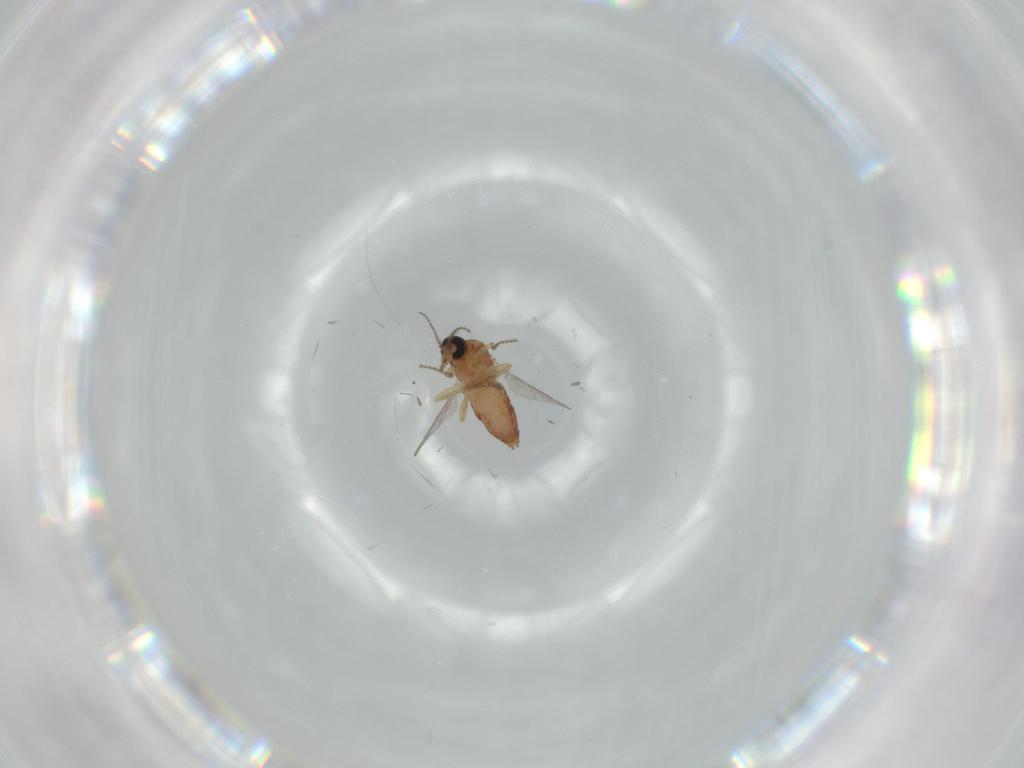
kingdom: Animalia
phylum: Arthropoda
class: Insecta
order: Diptera
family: Ceratopogonidae
